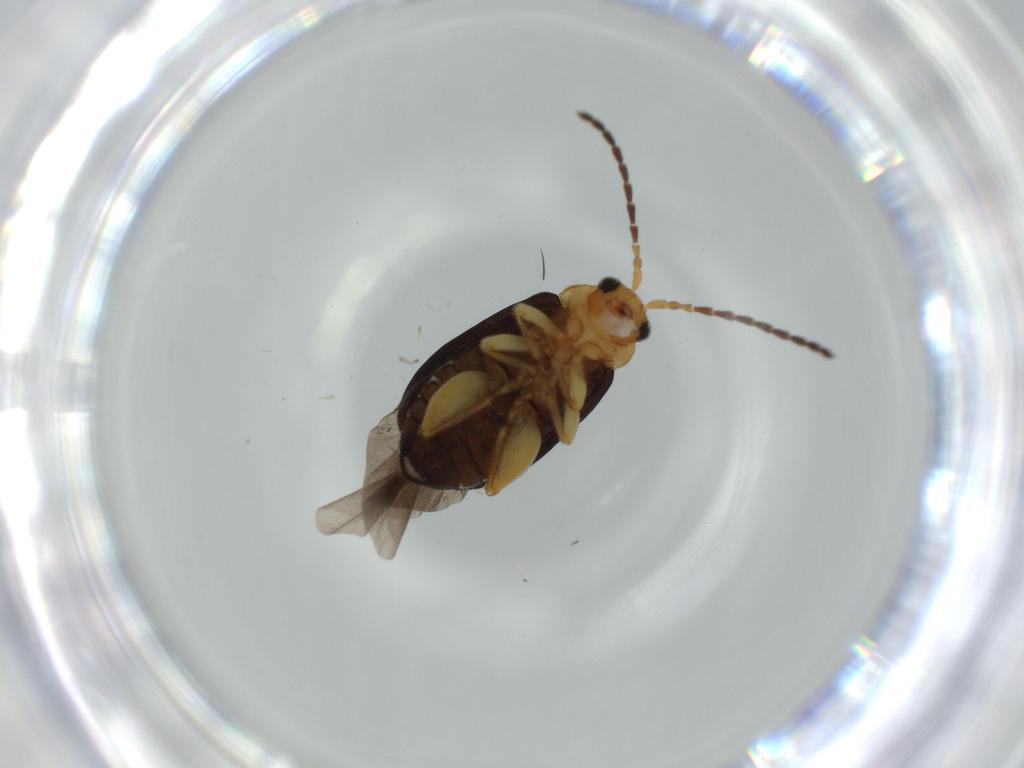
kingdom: Animalia
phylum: Arthropoda
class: Insecta
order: Coleoptera
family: Chrysomelidae
